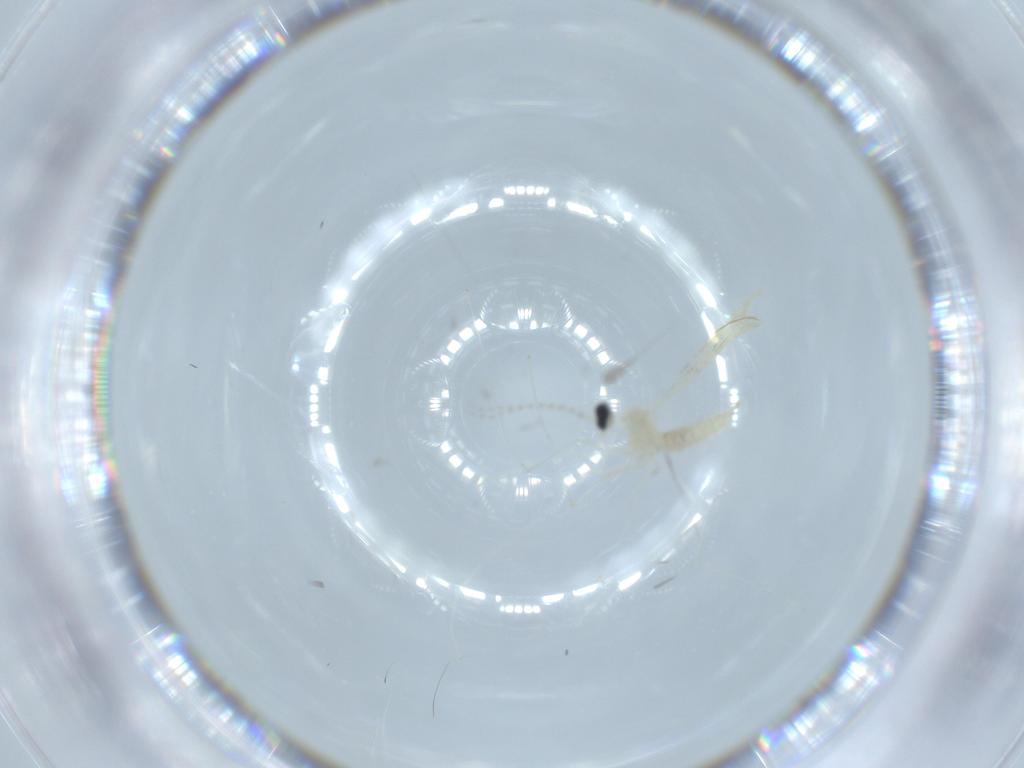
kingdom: Animalia
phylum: Arthropoda
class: Insecta
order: Diptera
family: Cecidomyiidae
